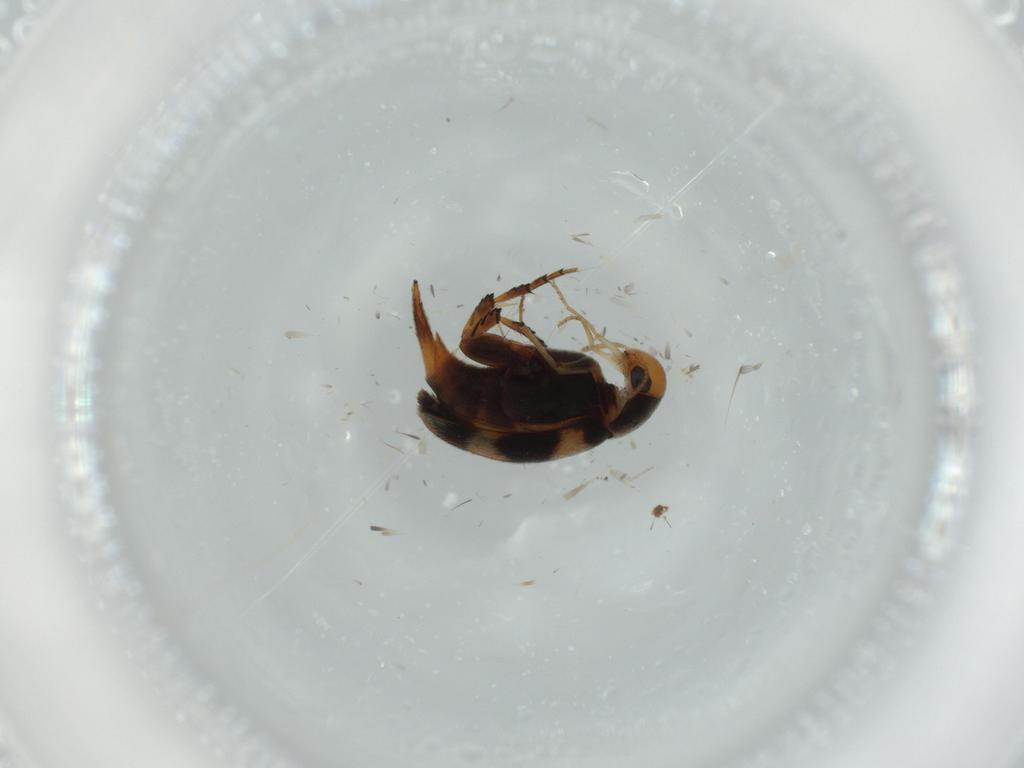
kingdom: Animalia
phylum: Arthropoda
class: Insecta
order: Coleoptera
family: Mordellidae
